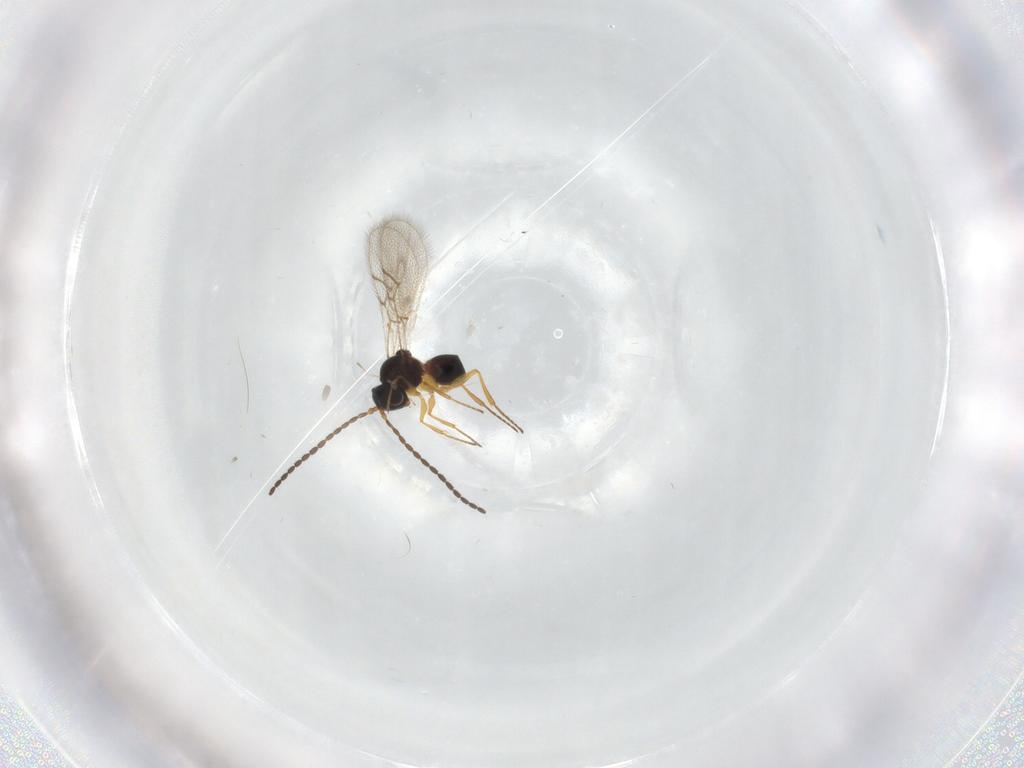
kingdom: Animalia
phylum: Arthropoda
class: Insecta
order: Hymenoptera
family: Figitidae
